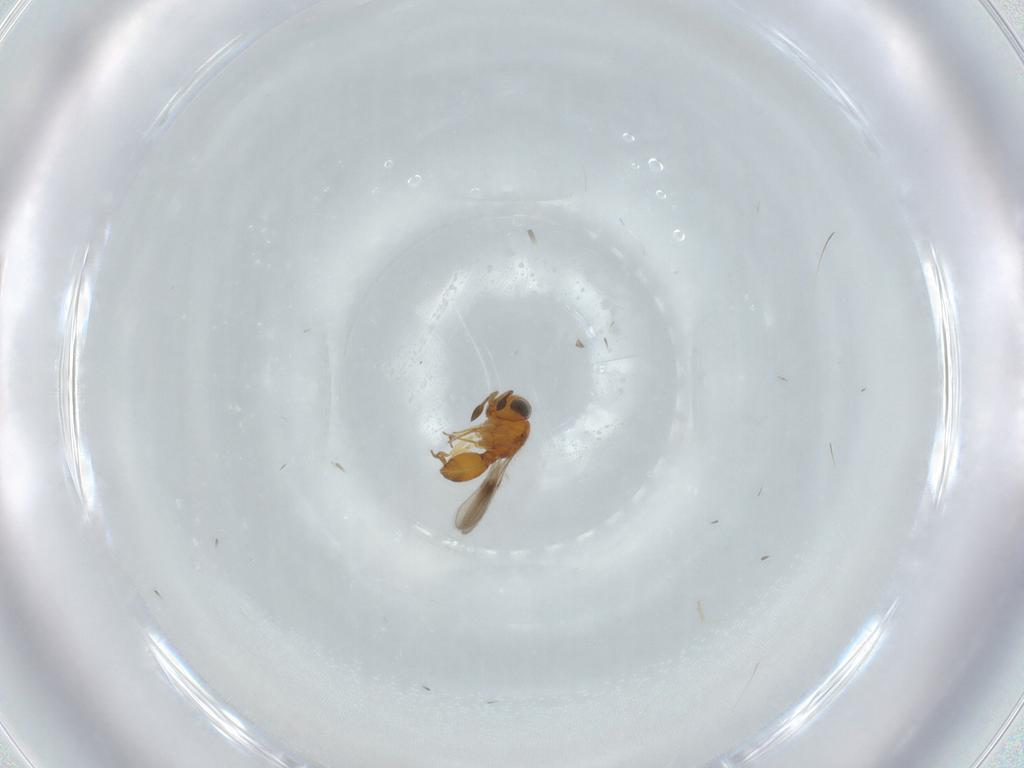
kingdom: Animalia
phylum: Arthropoda
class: Insecta
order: Hymenoptera
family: Scelionidae
